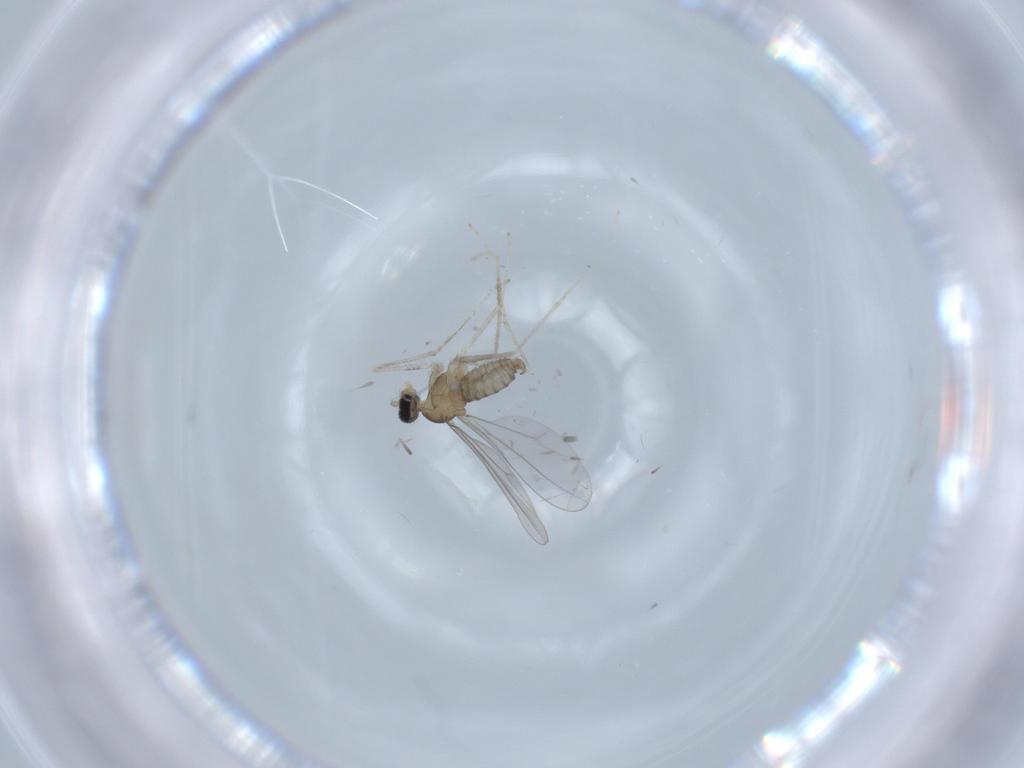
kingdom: Animalia
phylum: Arthropoda
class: Insecta
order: Diptera
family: Cecidomyiidae
